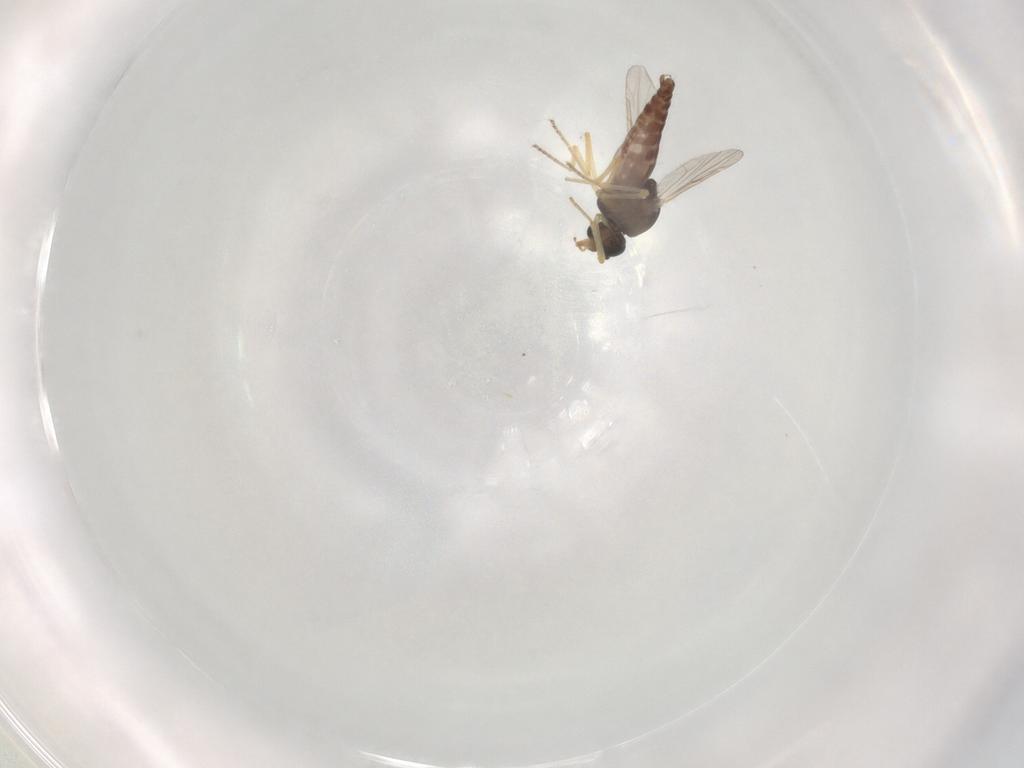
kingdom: Animalia
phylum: Arthropoda
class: Insecta
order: Diptera
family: Ceratopogonidae
